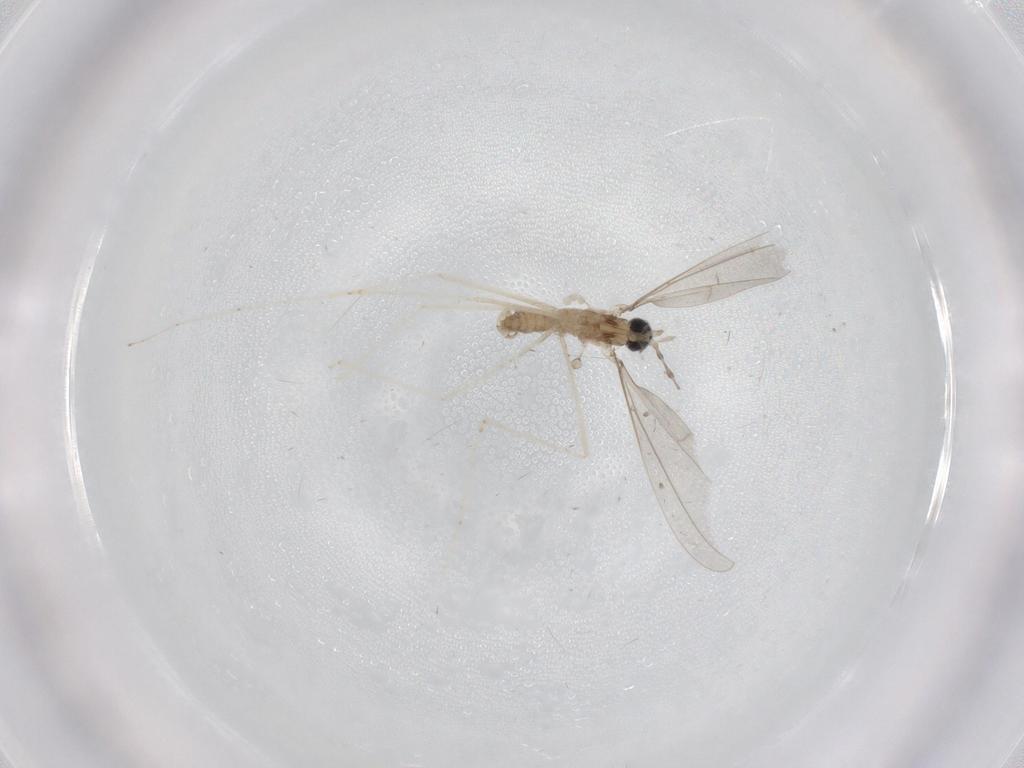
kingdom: Animalia
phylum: Arthropoda
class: Insecta
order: Diptera
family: Cecidomyiidae
